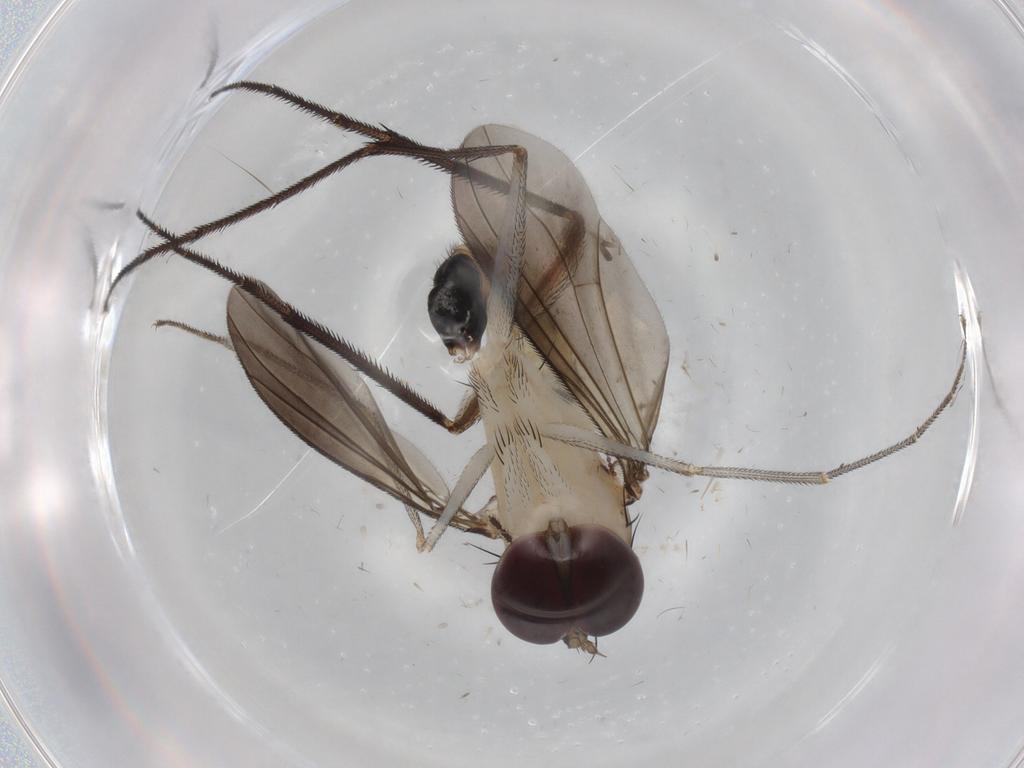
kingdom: Animalia
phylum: Arthropoda
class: Insecta
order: Diptera
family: Dolichopodidae
